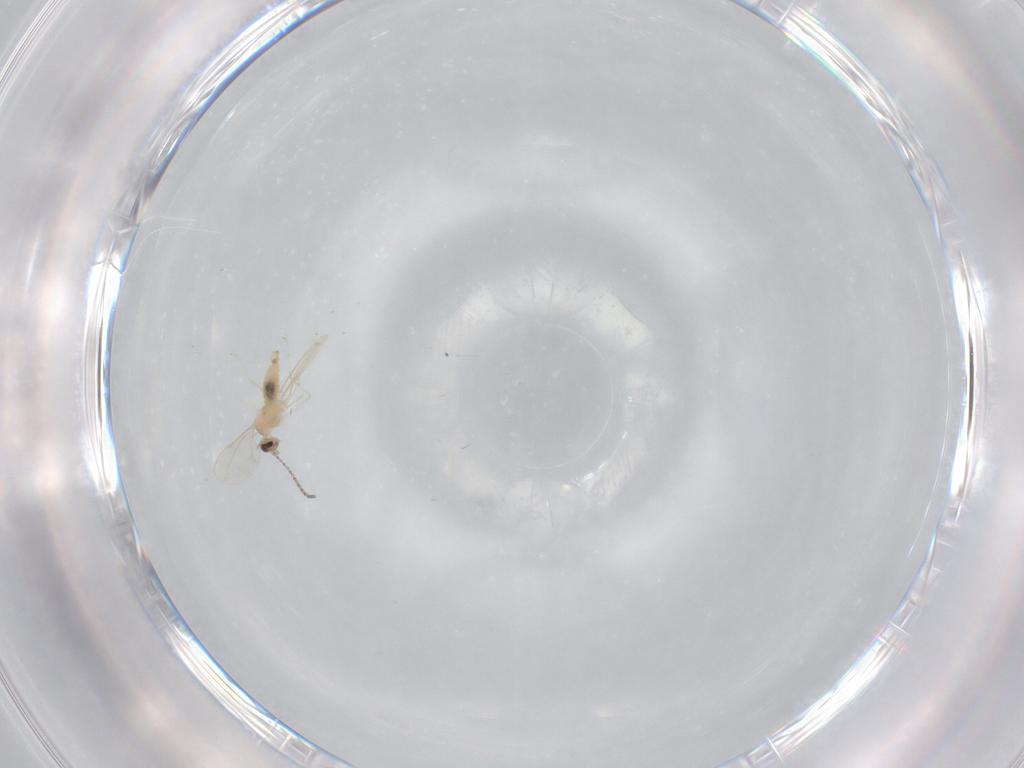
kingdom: Animalia
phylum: Arthropoda
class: Insecta
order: Diptera
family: Cecidomyiidae
